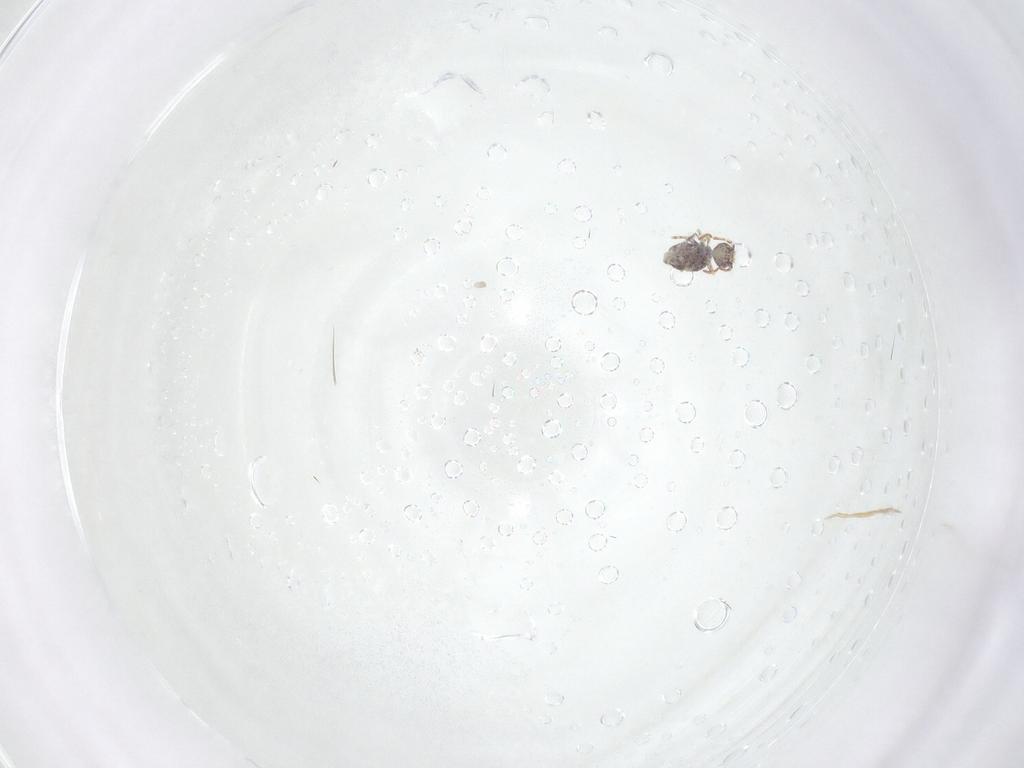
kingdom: Animalia
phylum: Arthropoda
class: Collembola
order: Symphypleona
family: Bourletiellidae
